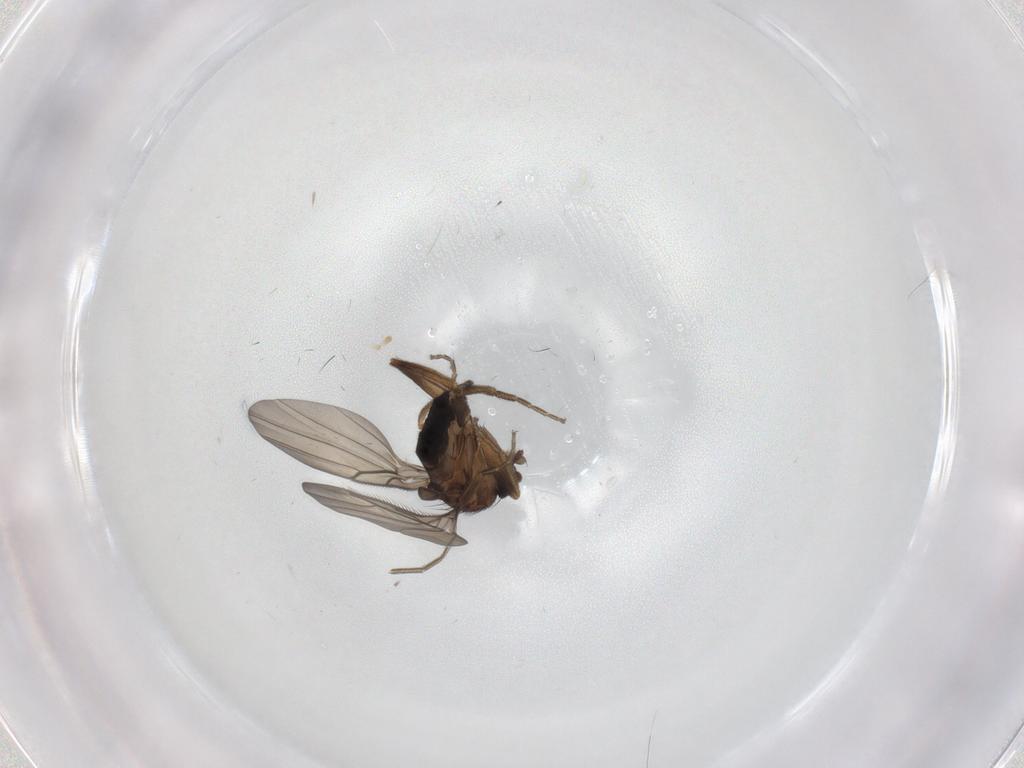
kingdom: Animalia
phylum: Arthropoda
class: Insecta
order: Diptera
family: Phoridae
